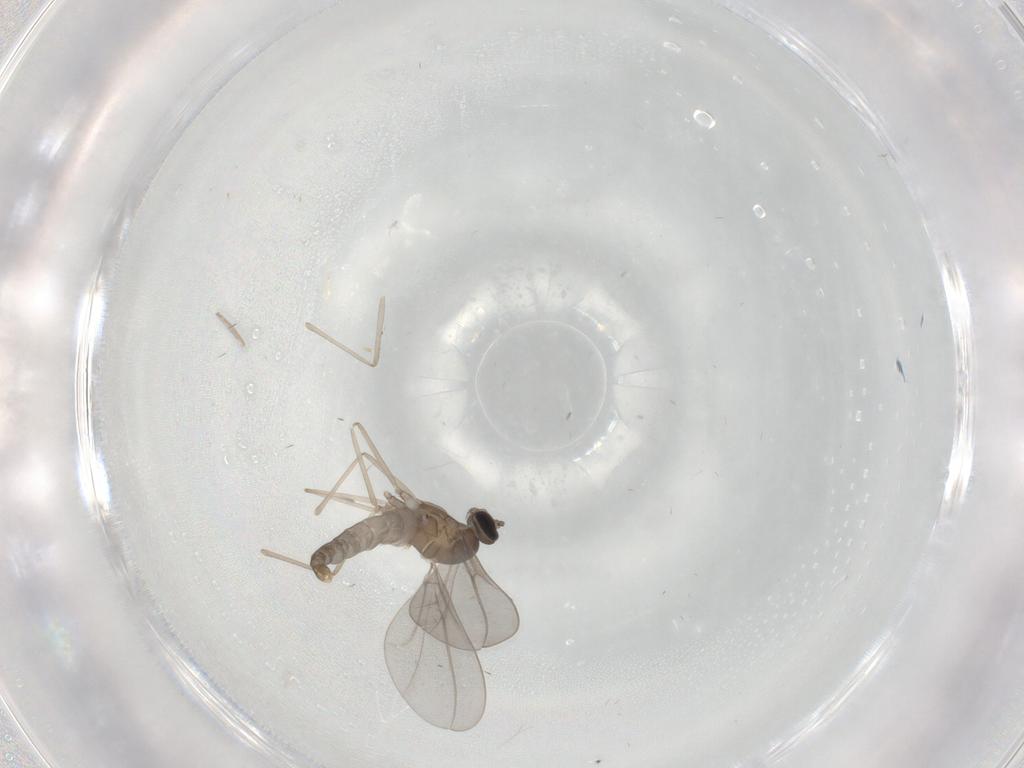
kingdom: Animalia
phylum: Arthropoda
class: Insecta
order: Diptera
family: Cecidomyiidae
